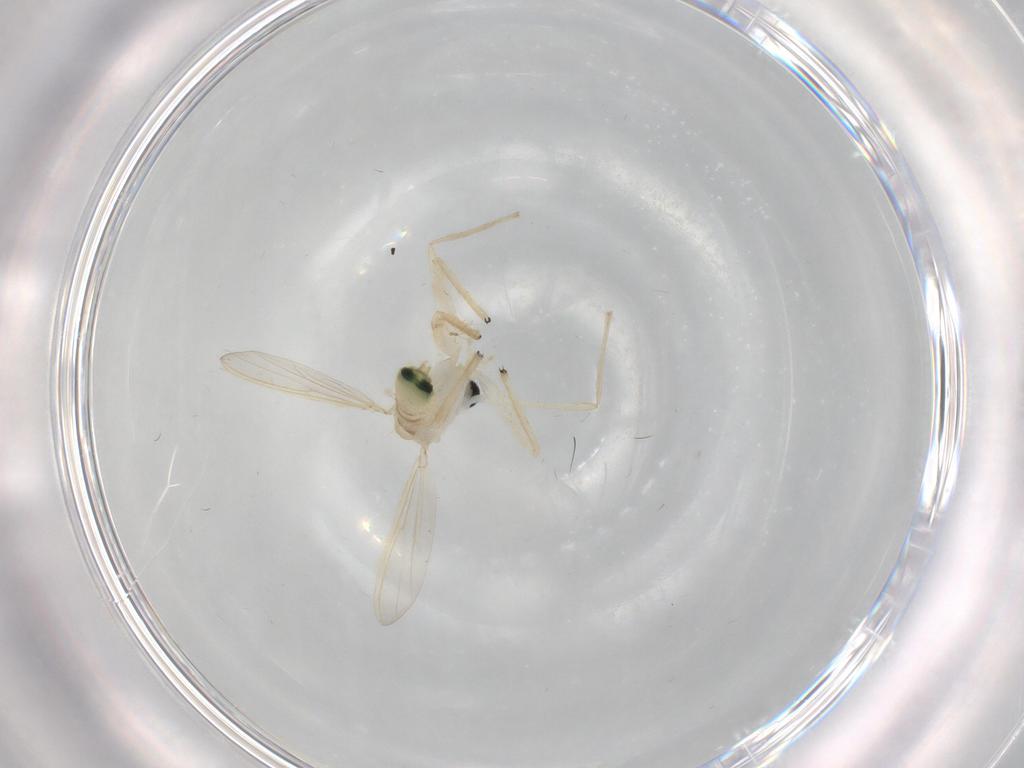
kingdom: Animalia
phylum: Arthropoda
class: Insecta
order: Diptera
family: Chironomidae
